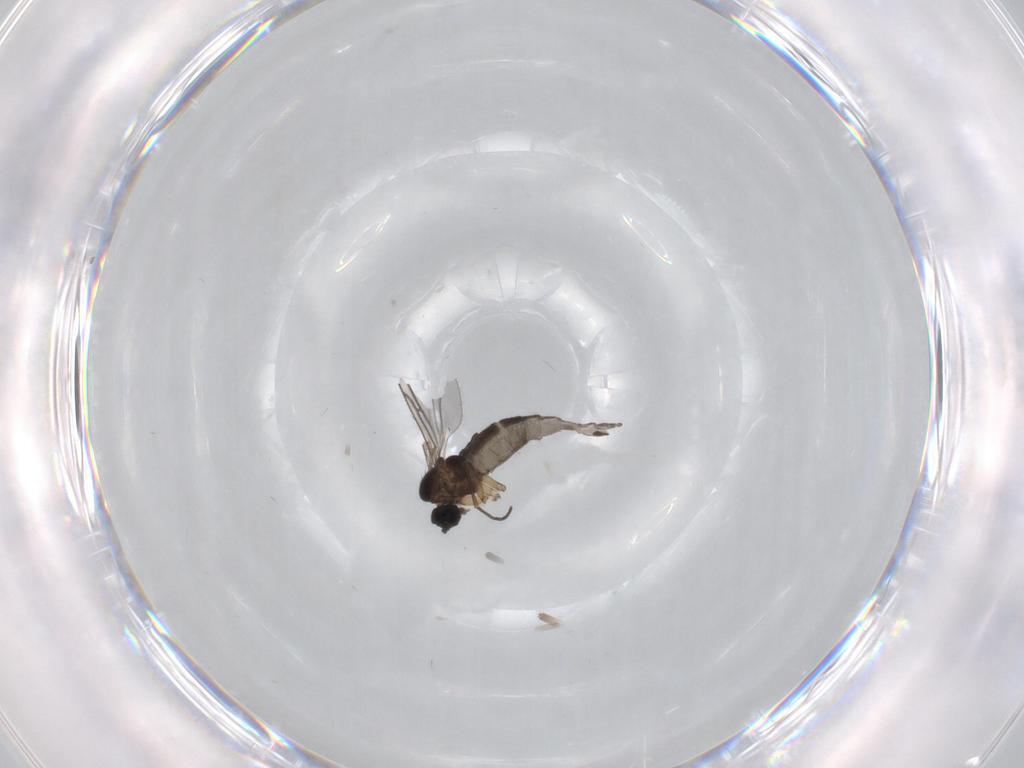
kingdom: Animalia
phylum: Arthropoda
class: Insecta
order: Diptera
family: Sciaridae
